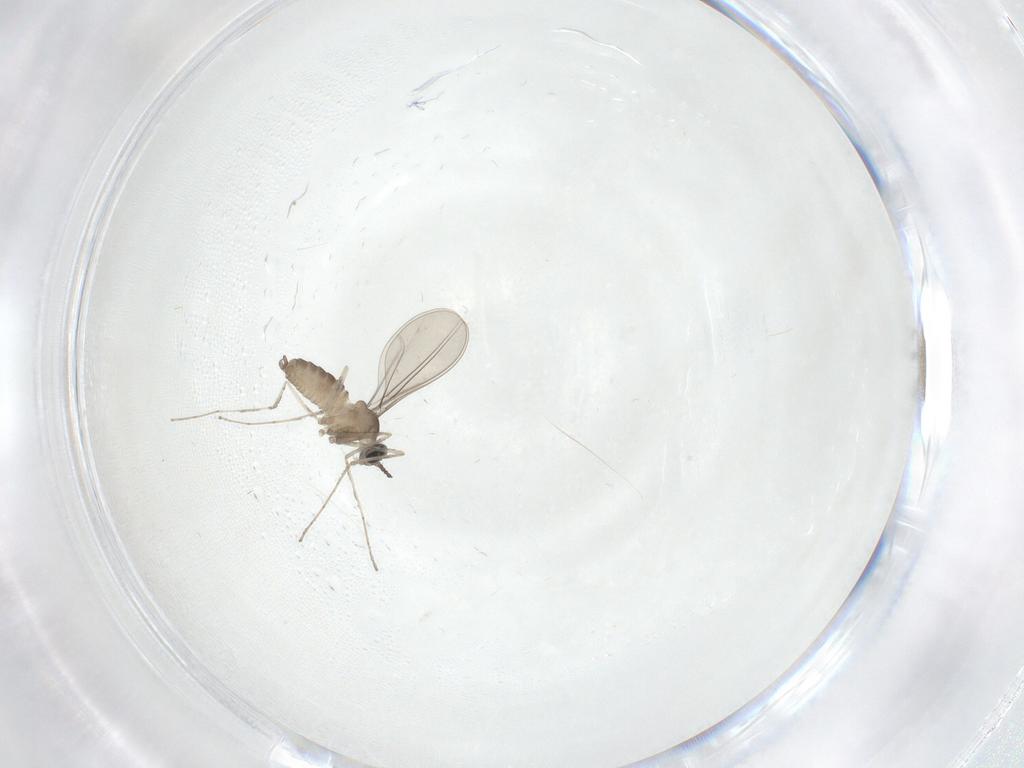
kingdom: Animalia
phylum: Arthropoda
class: Insecta
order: Diptera
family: Cecidomyiidae
